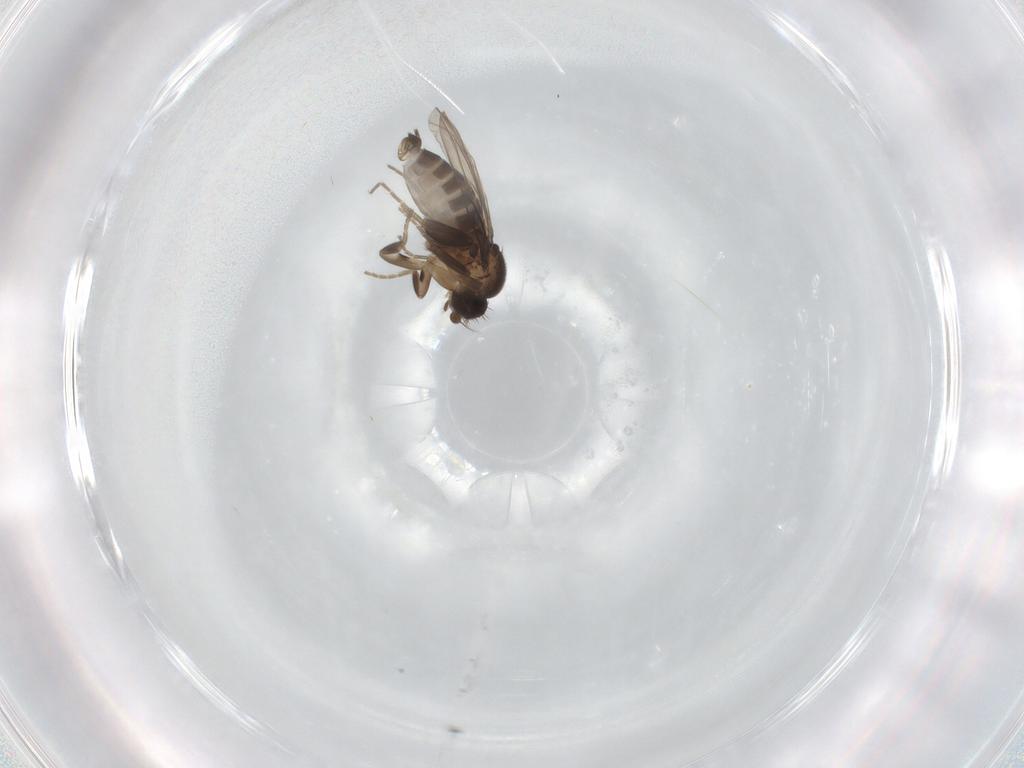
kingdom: Animalia
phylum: Arthropoda
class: Insecta
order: Diptera
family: Phoridae
